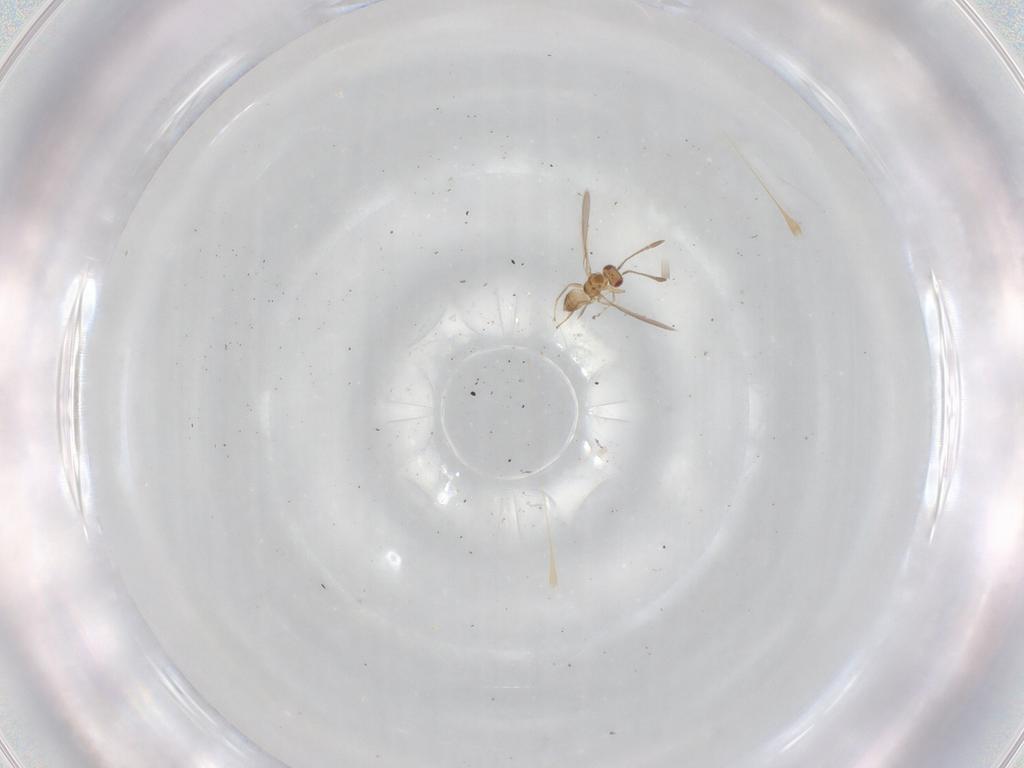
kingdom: Animalia
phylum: Arthropoda
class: Insecta
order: Hymenoptera
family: Mymaridae
